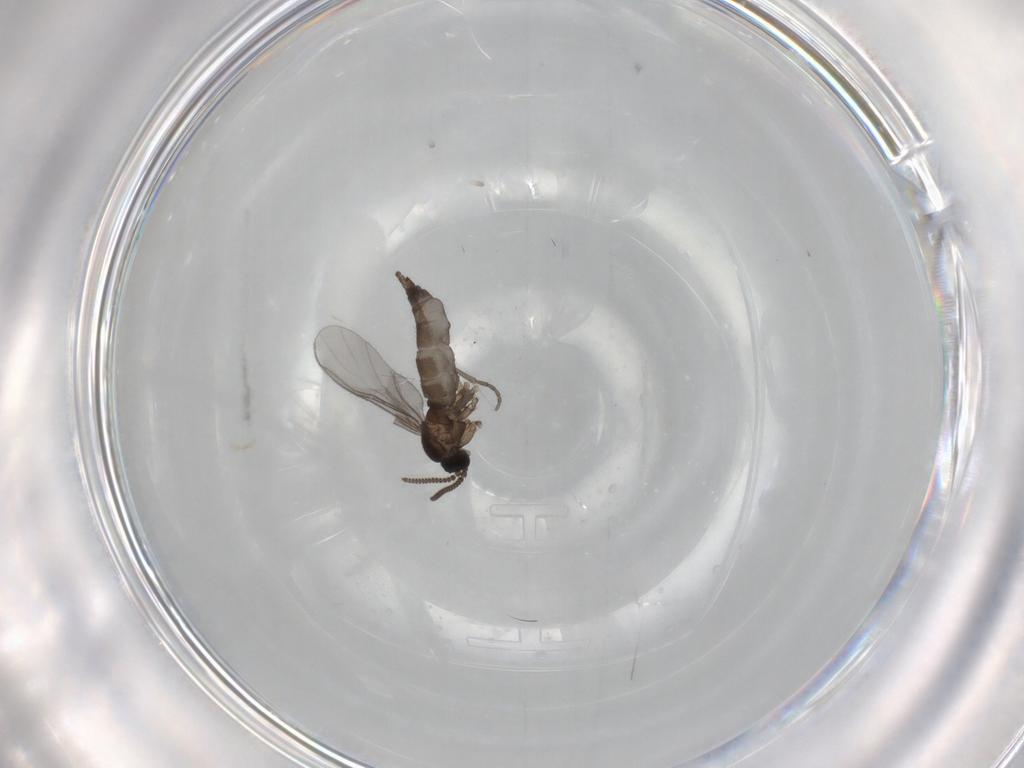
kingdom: Animalia
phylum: Arthropoda
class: Insecta
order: Diptera
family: Sciaridae
